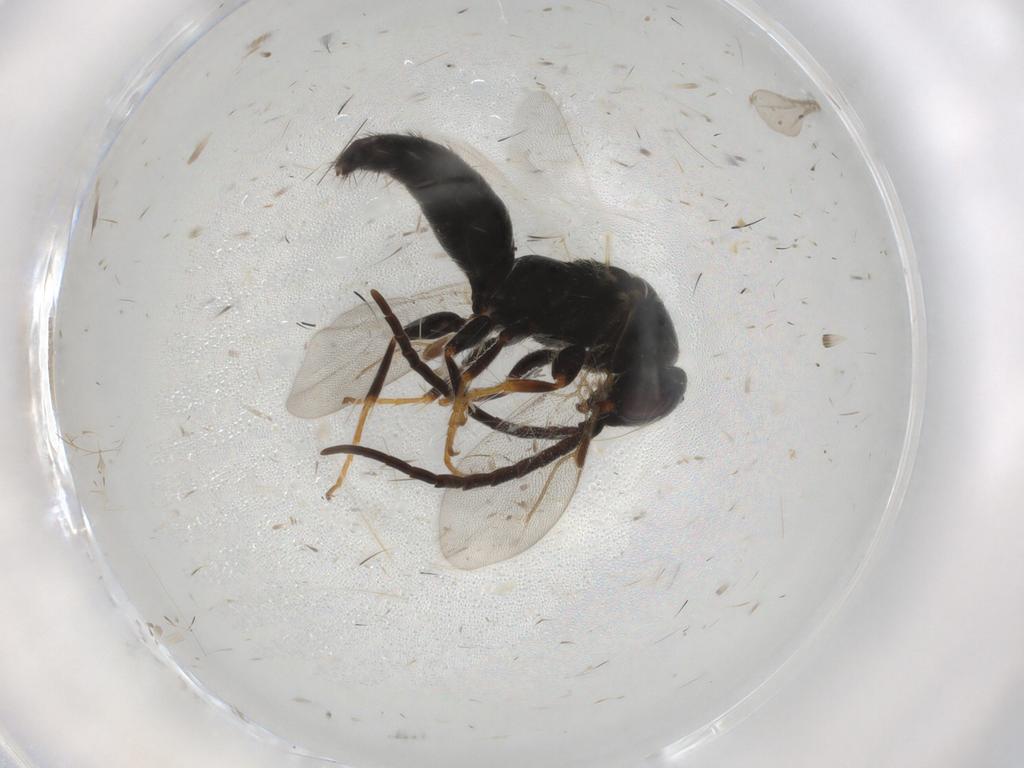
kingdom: Animalia
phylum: Arthropoda
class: Insecta
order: Hymenoptera
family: Bethylidae
